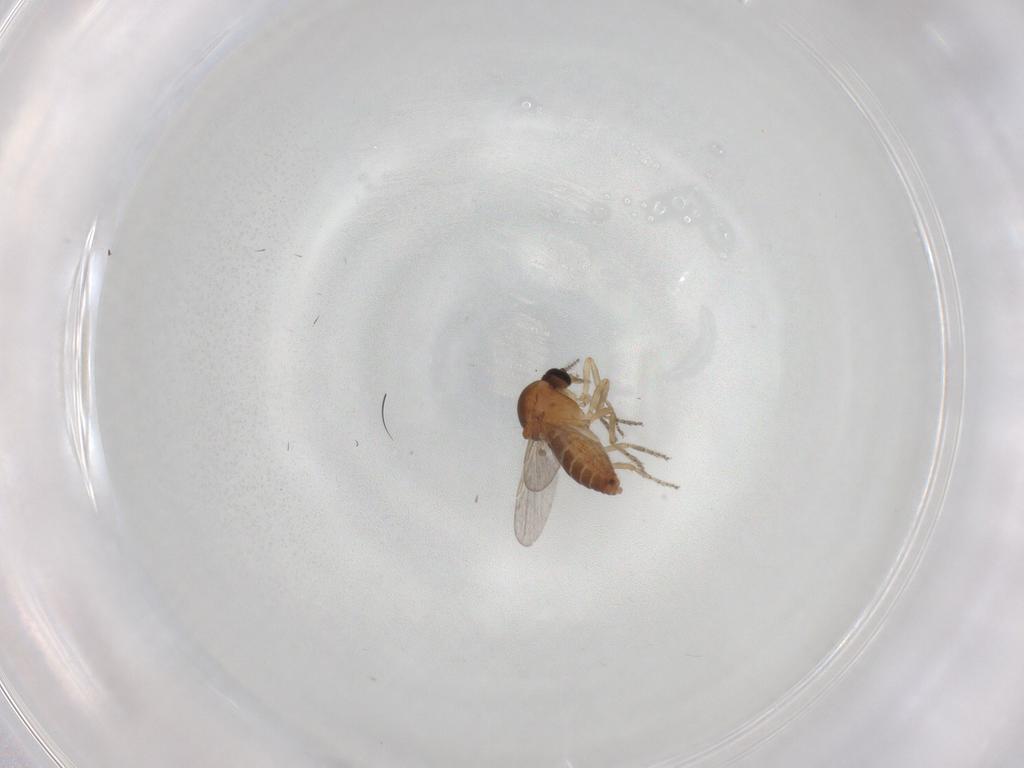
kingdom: Animalia
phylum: Arthropoda
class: Insecta
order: Diptera
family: Ceratopogonidae
